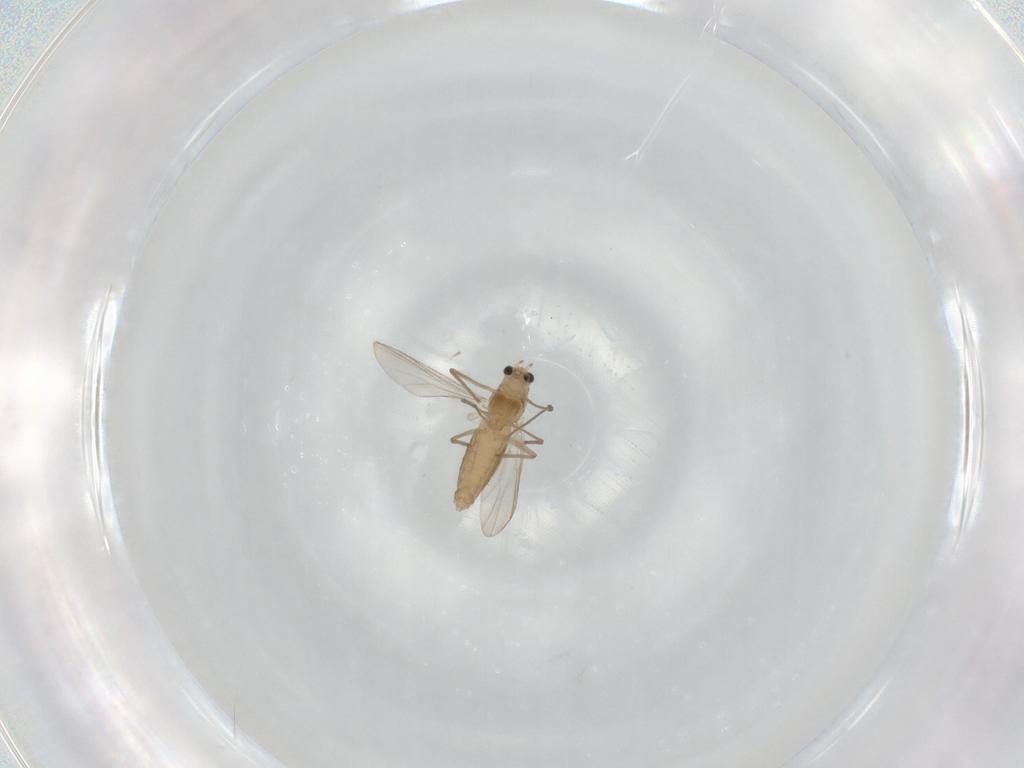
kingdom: Animalia
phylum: Arthropoda
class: Insecta
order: Diptera
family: Chironomidae
